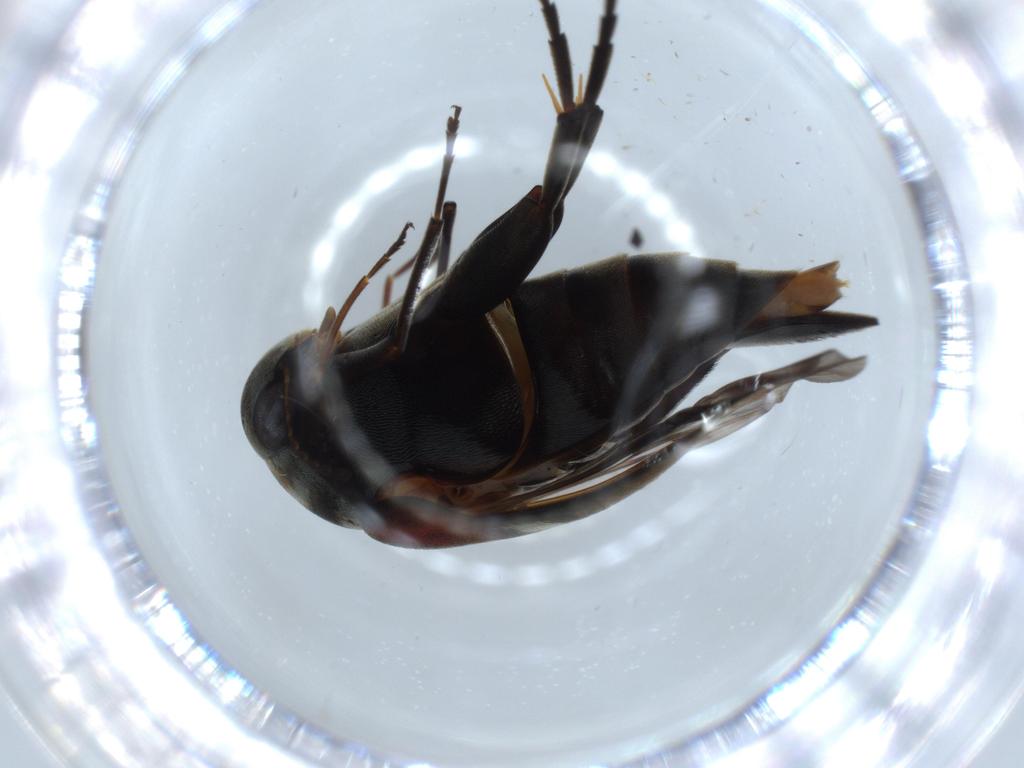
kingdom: Animalia
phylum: Arthropoda
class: Insecta
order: Coleoptera
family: Mordellidae
